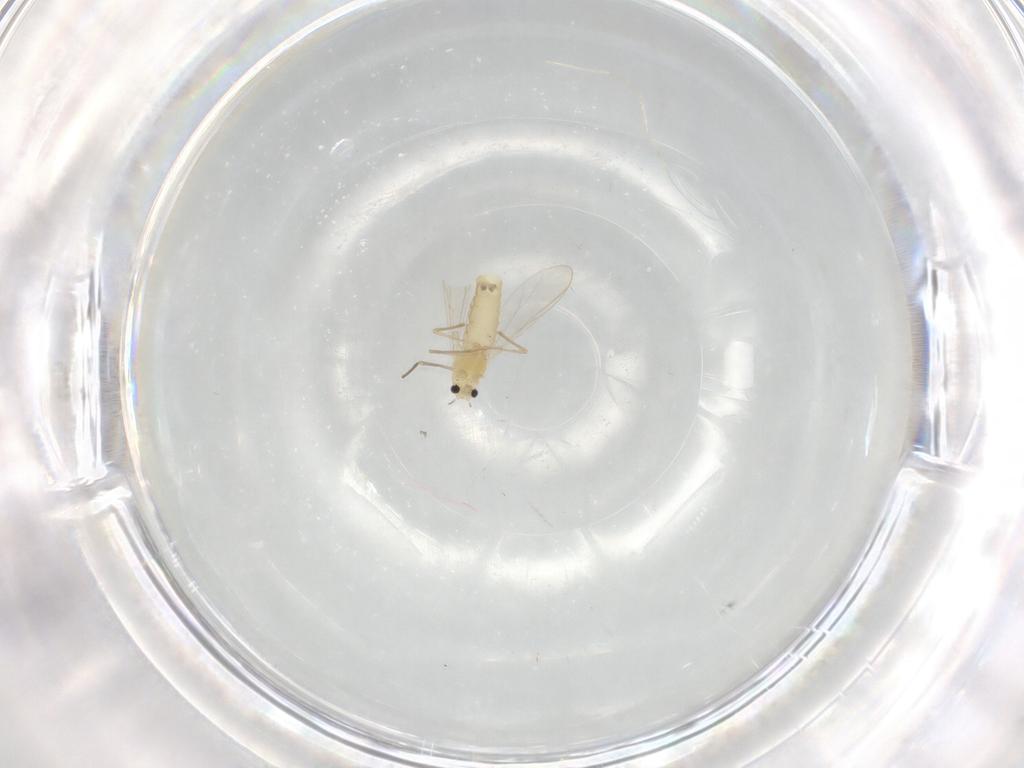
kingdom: Animalia
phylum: Arthropoda
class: Insecta
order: Diptera
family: Chironomidae
